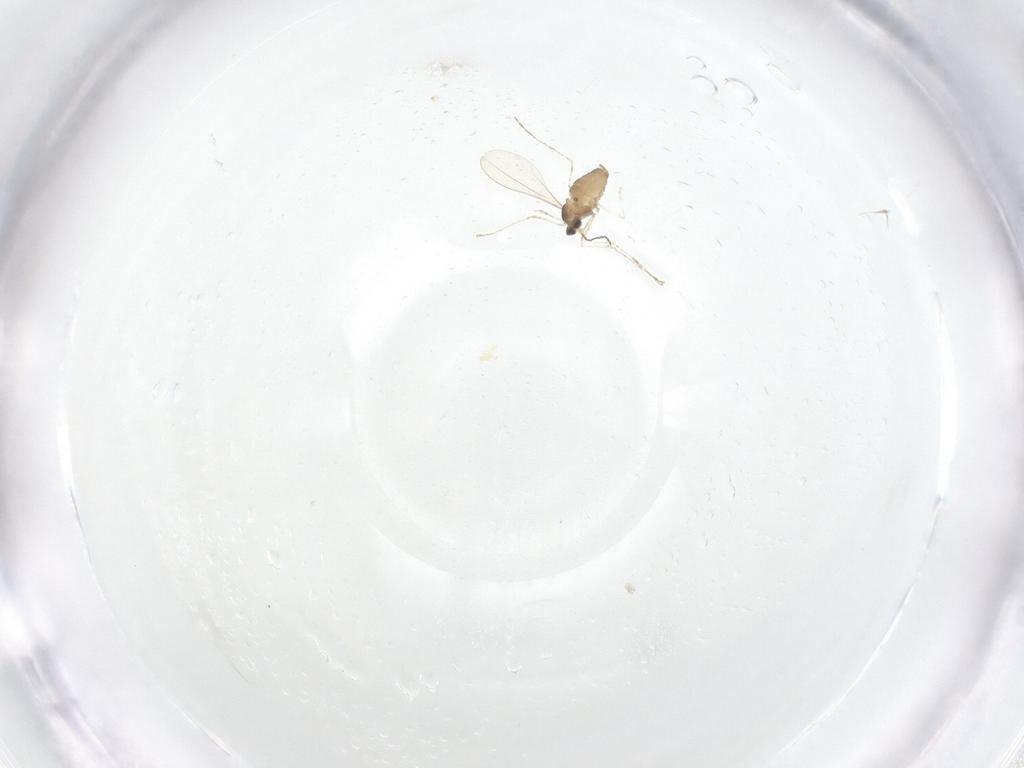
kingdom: Animalia
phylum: Arthropoda
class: Insecta
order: Diptera
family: Cecidomyiidae
